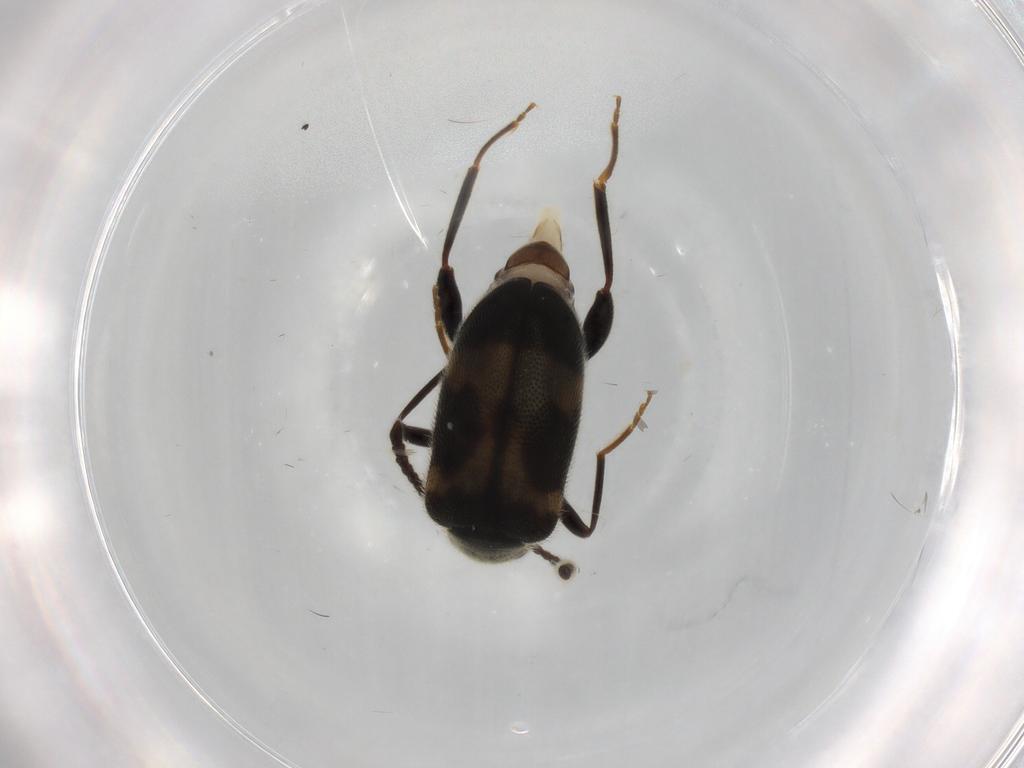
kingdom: Animalia
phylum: Arthropoda
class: Insecta
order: Coleoptera
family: Aderidae
